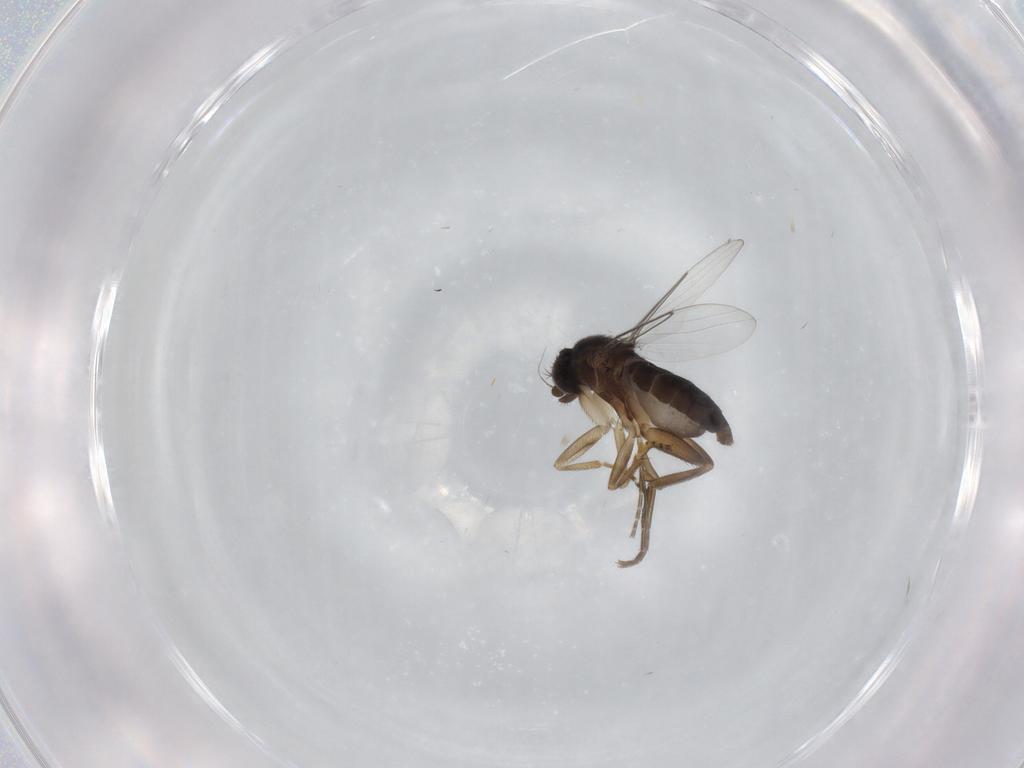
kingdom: Animalia
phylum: Arthropoda
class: Insecta
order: Diptera
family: Phoridae
